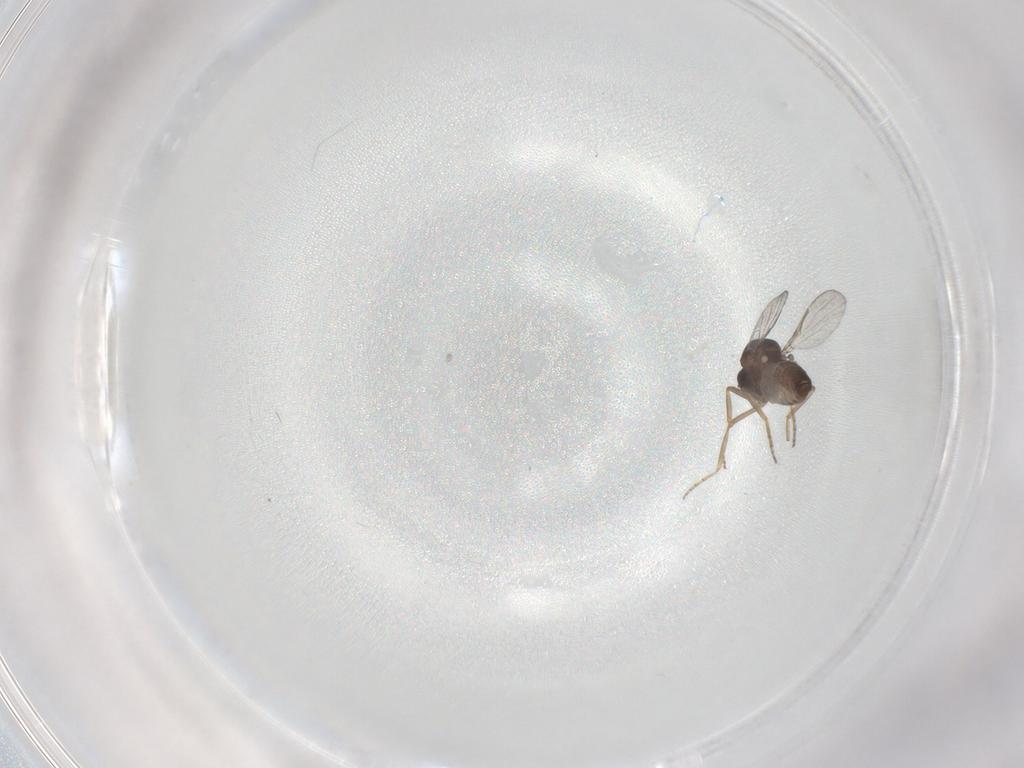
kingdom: Animalia
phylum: Arthropoda
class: Insecta
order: Diptera
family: Ceratopogonidae
